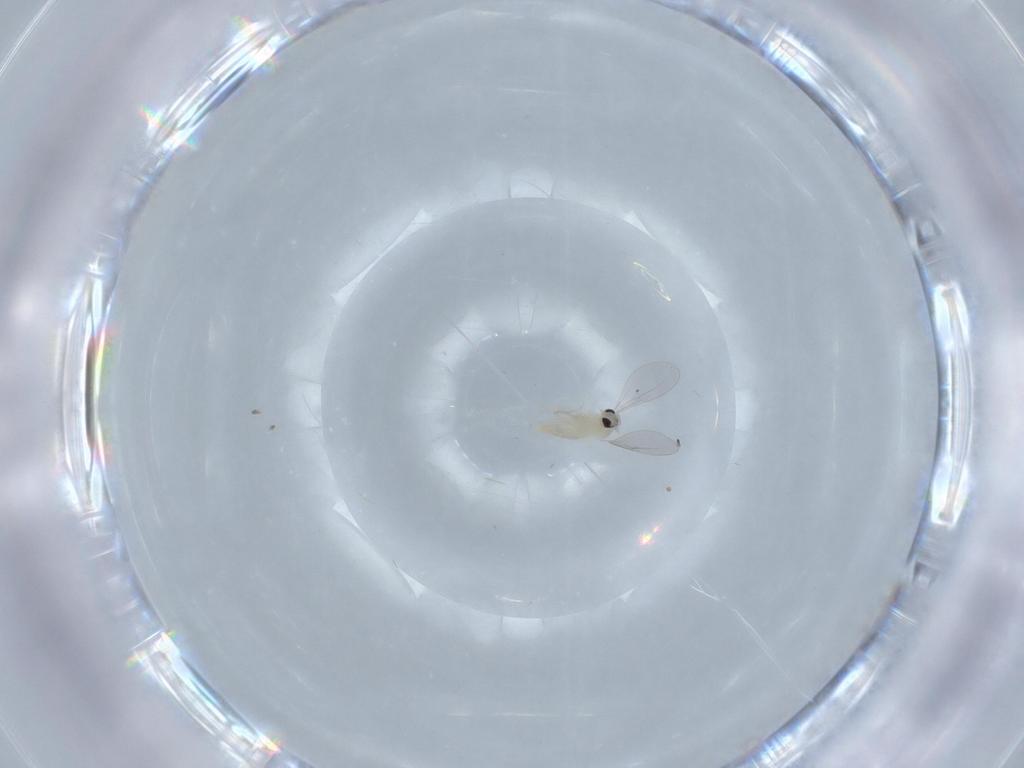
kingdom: Animalia
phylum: Arthropoda
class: Insecta
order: Diptera
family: Cecidomyiidae
